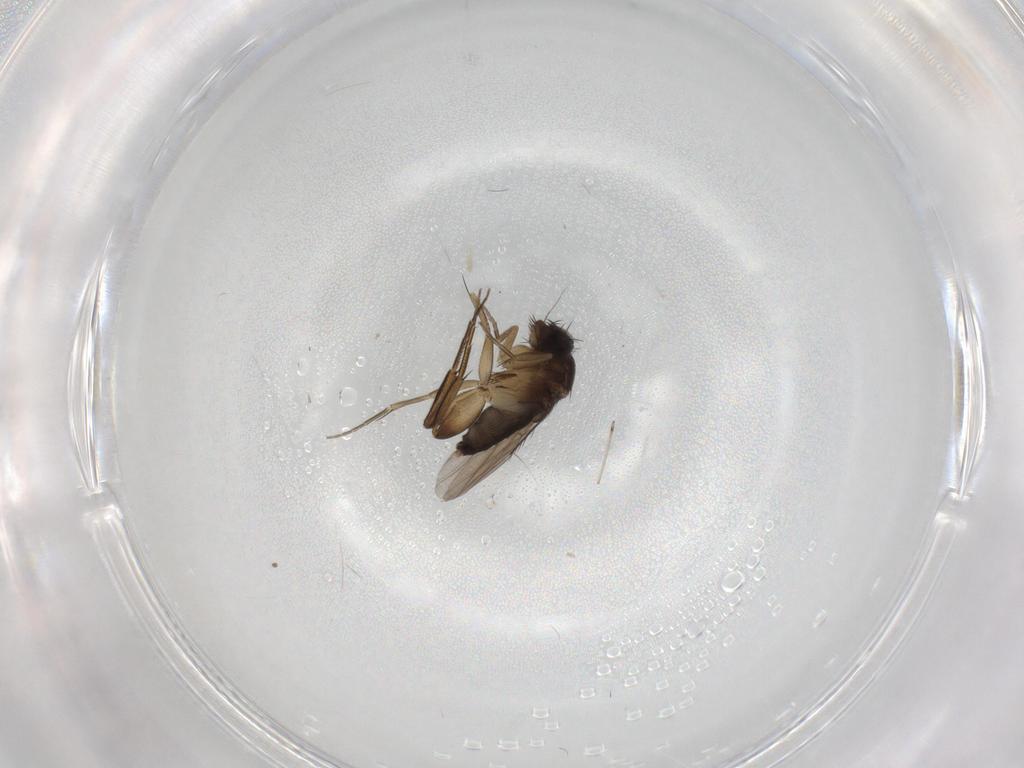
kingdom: Animalia
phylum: Arthropoda
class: Insecta
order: Diptera
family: Phoridae
